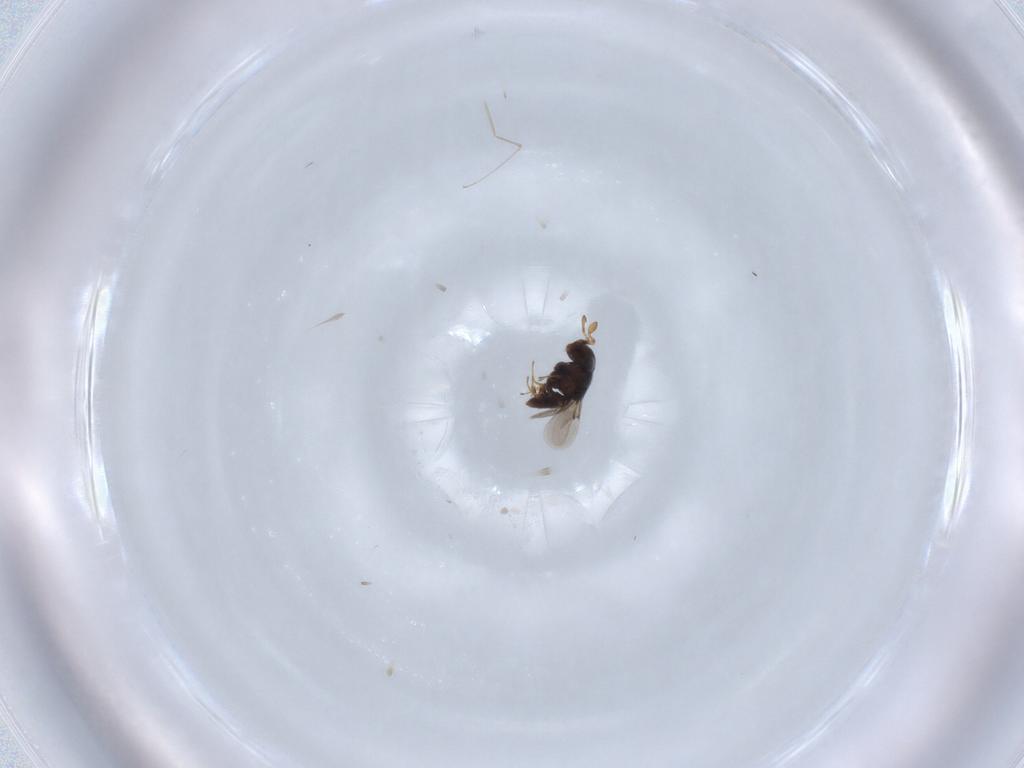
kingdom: Animalia
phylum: Arthropoda
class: Insecta
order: Hymenoptera
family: Scelionidae
